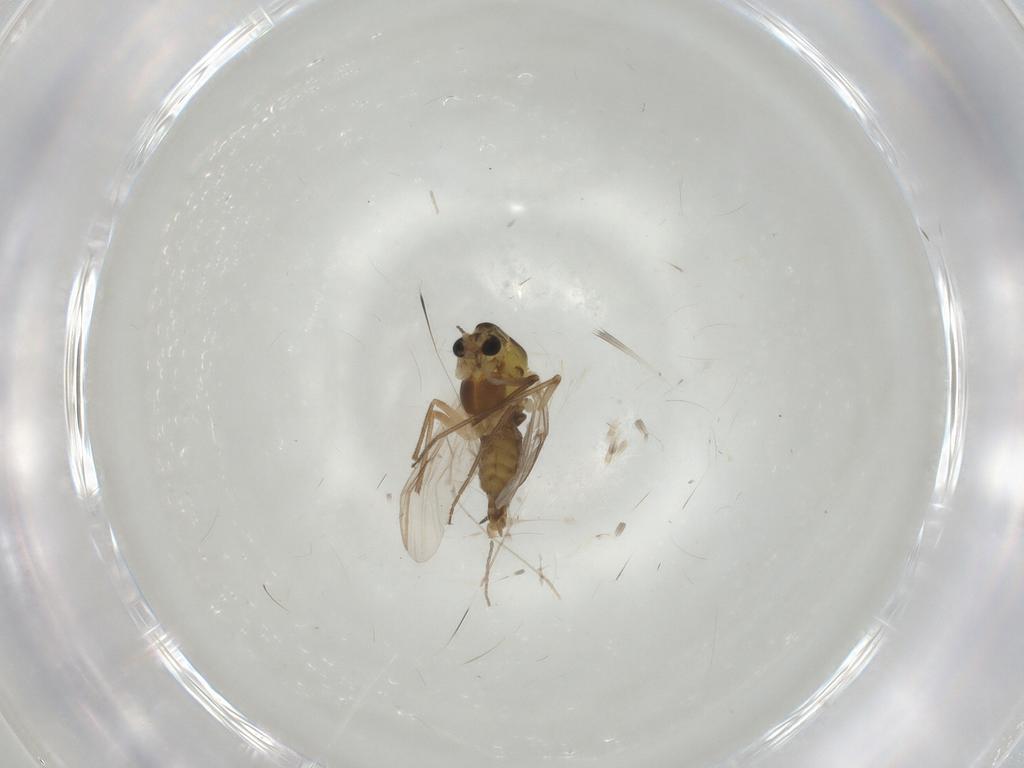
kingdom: Animalia
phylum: Arthropoda
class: Insecta
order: Diptera
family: Chironomidae
